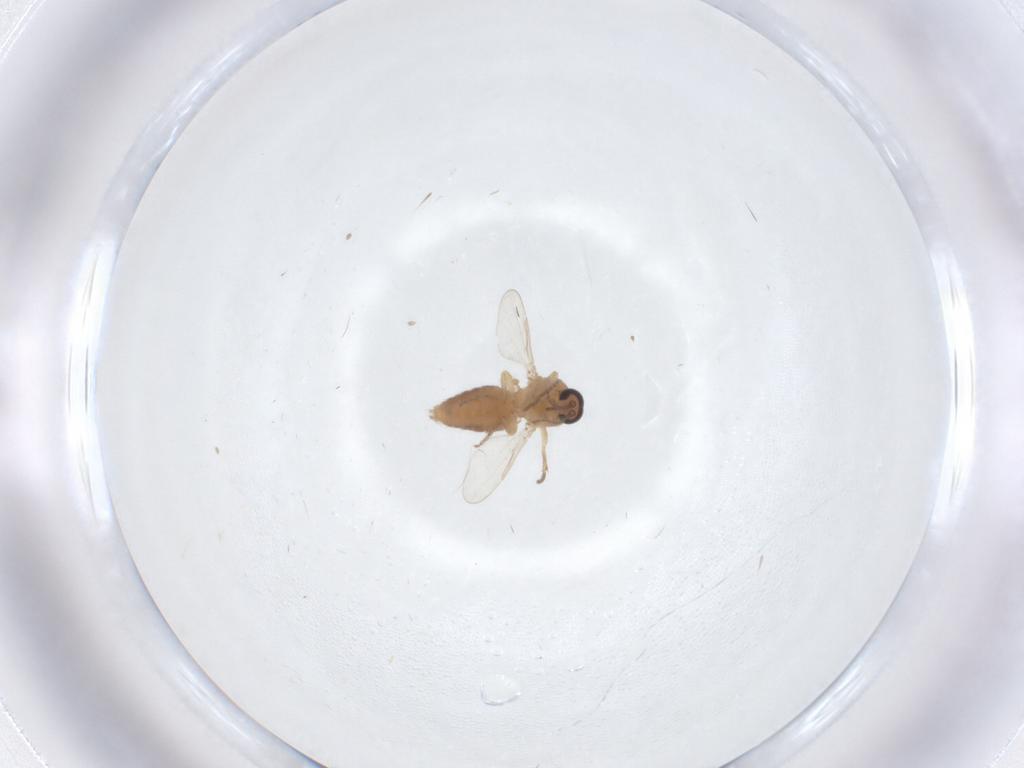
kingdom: Animalia
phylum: Arthropoda
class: Insecta
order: Diptera
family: Ceratopogonidae
